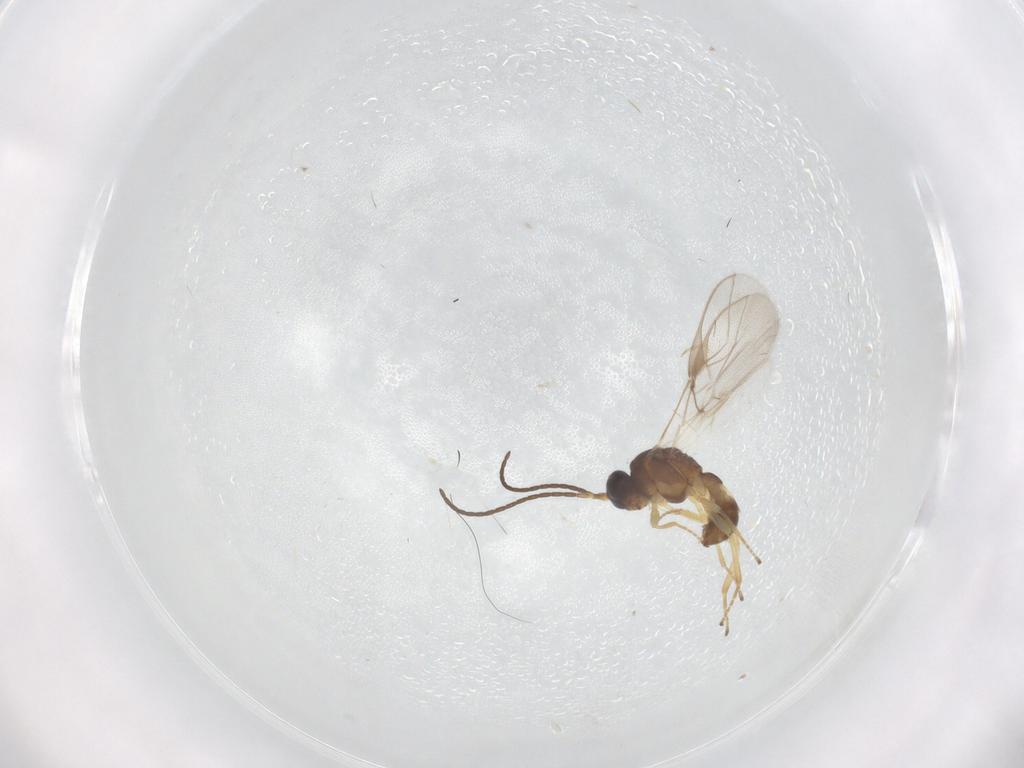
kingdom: Animalia
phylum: Arthropoda
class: Insecta
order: Hymenoptera
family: Braconidae
